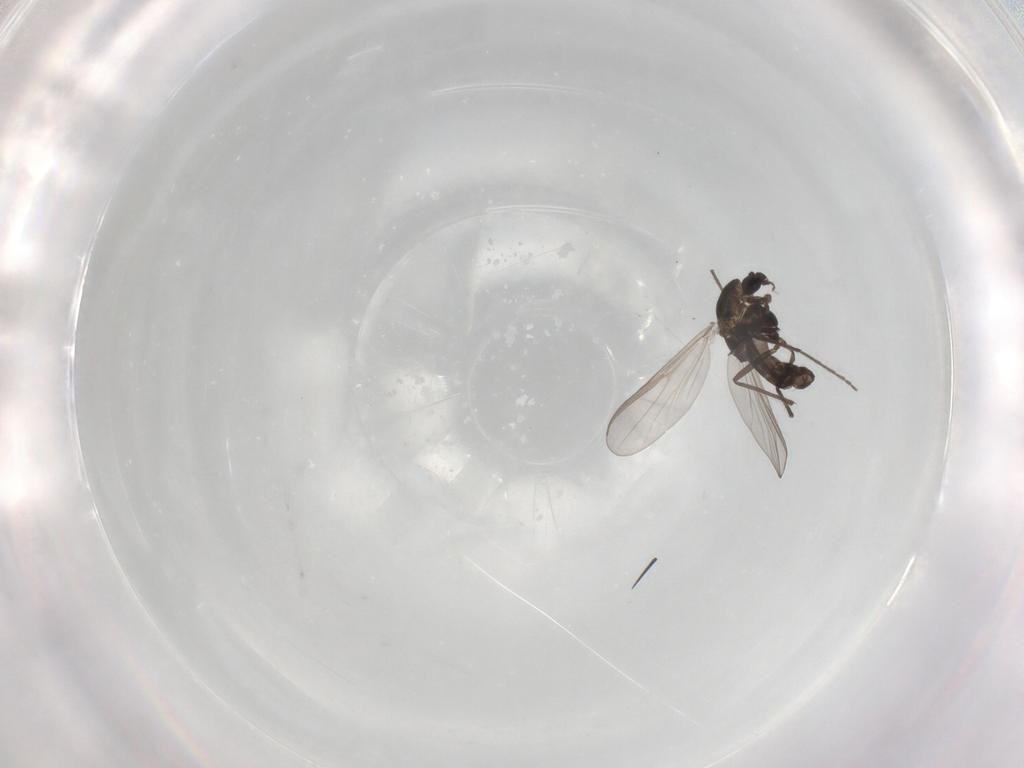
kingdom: Animalia
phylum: Arthropoda
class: Insecta
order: Diptera
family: Chironomidae
